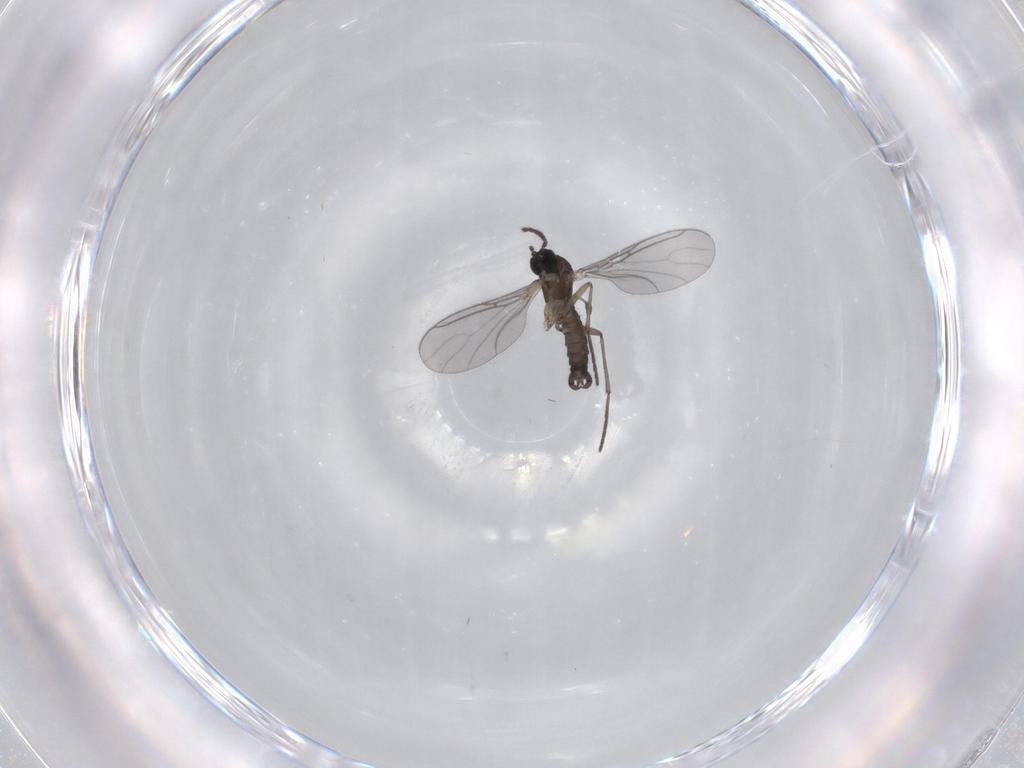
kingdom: Animalia
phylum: Arthropoda
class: Insecta
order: Diptera
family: Sciaridae
